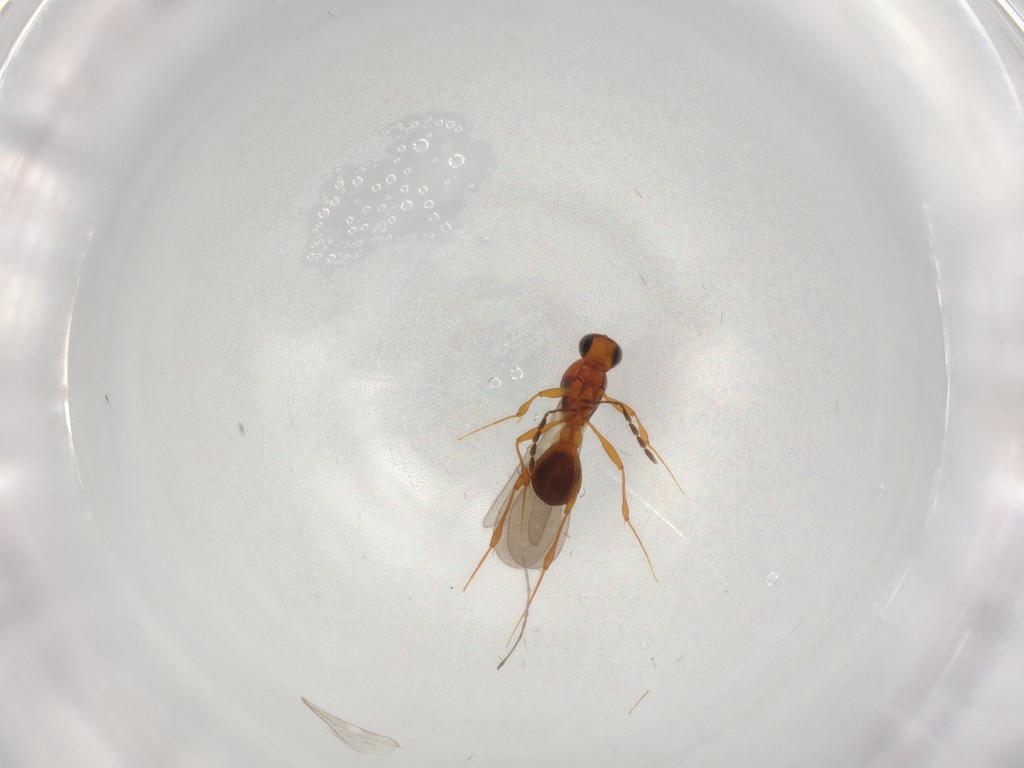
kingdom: Animalia
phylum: Arthropoda
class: Insecta
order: Hymenoptera
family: Platygastridae
